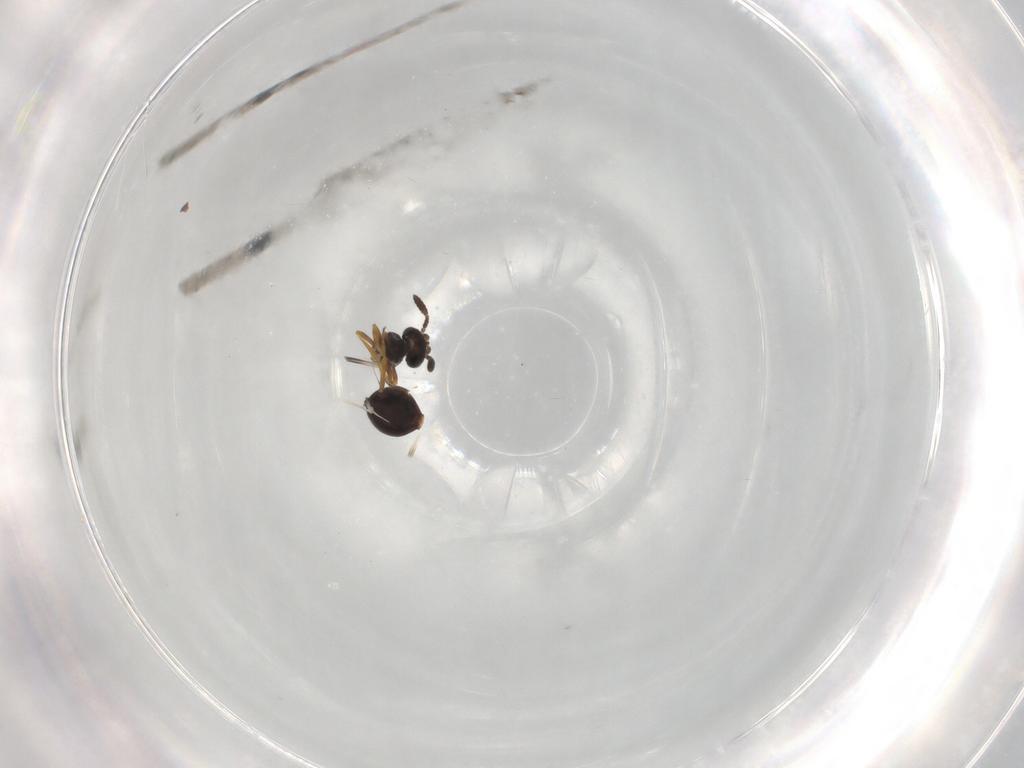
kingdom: Animalia
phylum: Arthropoda
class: Insecta
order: Hymenoptera
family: Scelionidae
